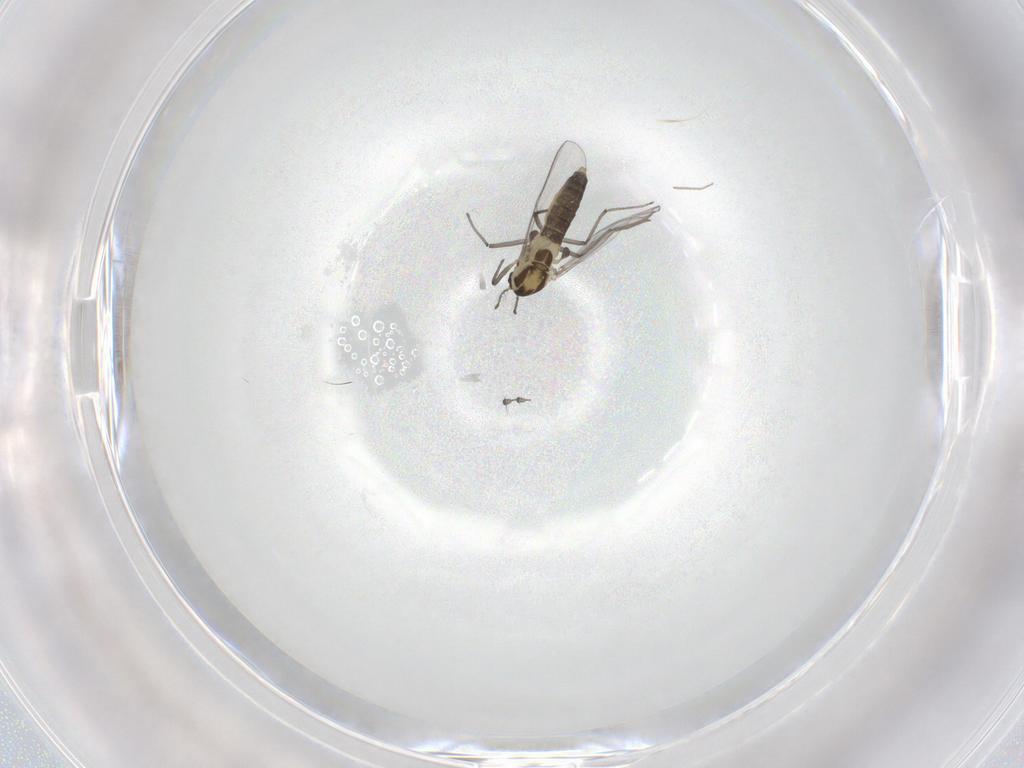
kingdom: Animalia
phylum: Arthropoda
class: Insecta
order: Diptera
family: Chironomidae
